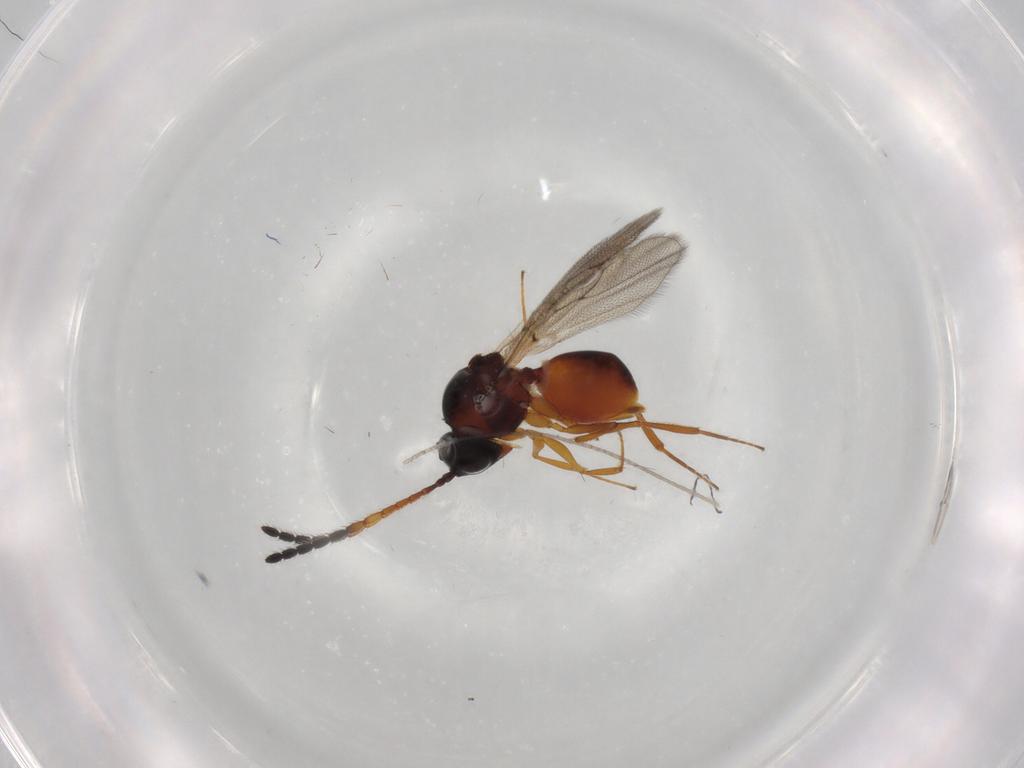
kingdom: Animalia
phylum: Arthropoda
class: Insecta
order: Hymenoptera
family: Figitidae
